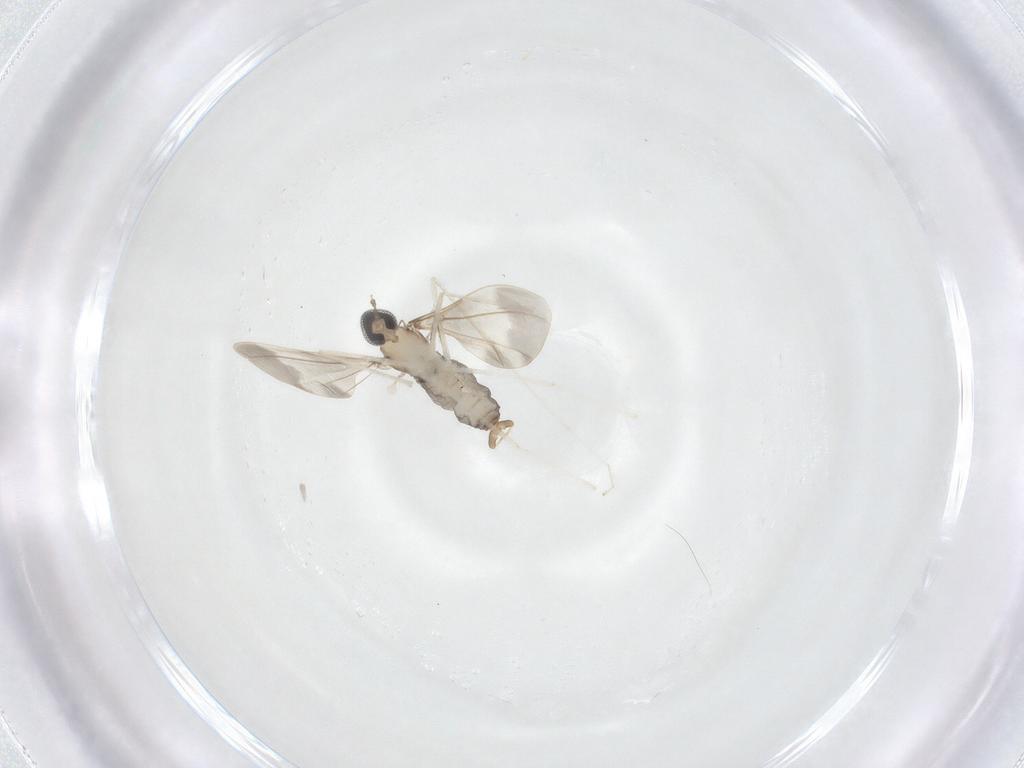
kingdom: Animalia
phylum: Arthropoda
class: Insecta
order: Diptera
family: Cecidomyiidae
